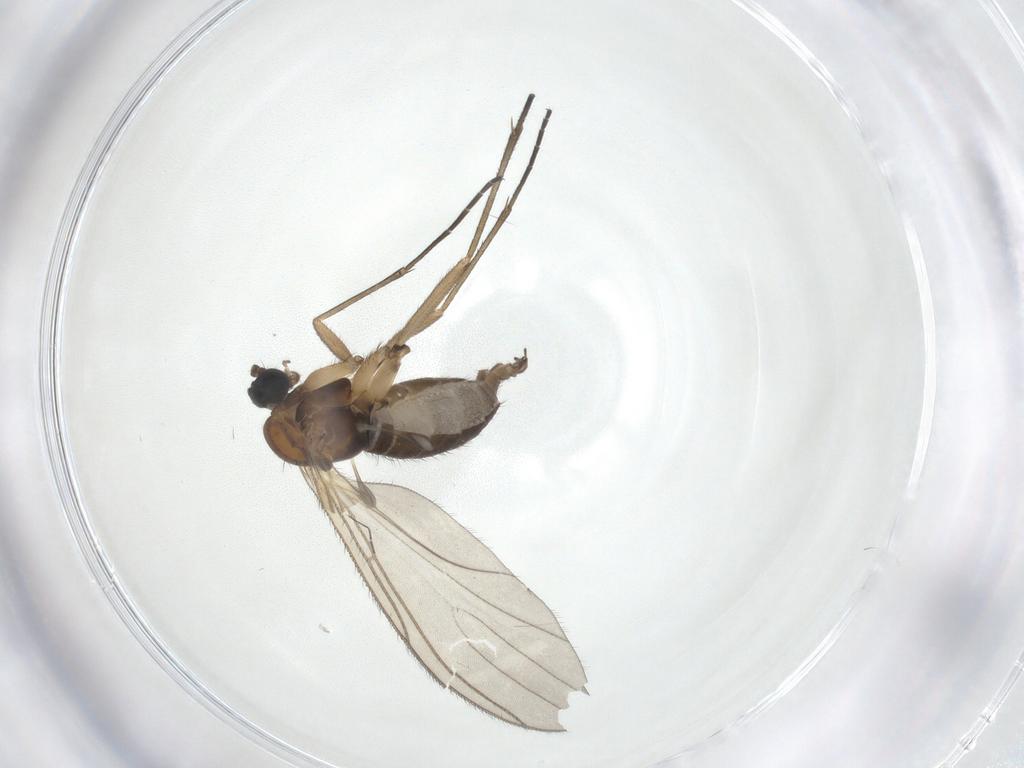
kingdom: Animalia
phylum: Arthropoda
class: Insecta
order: Diptera
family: Sciaridae
